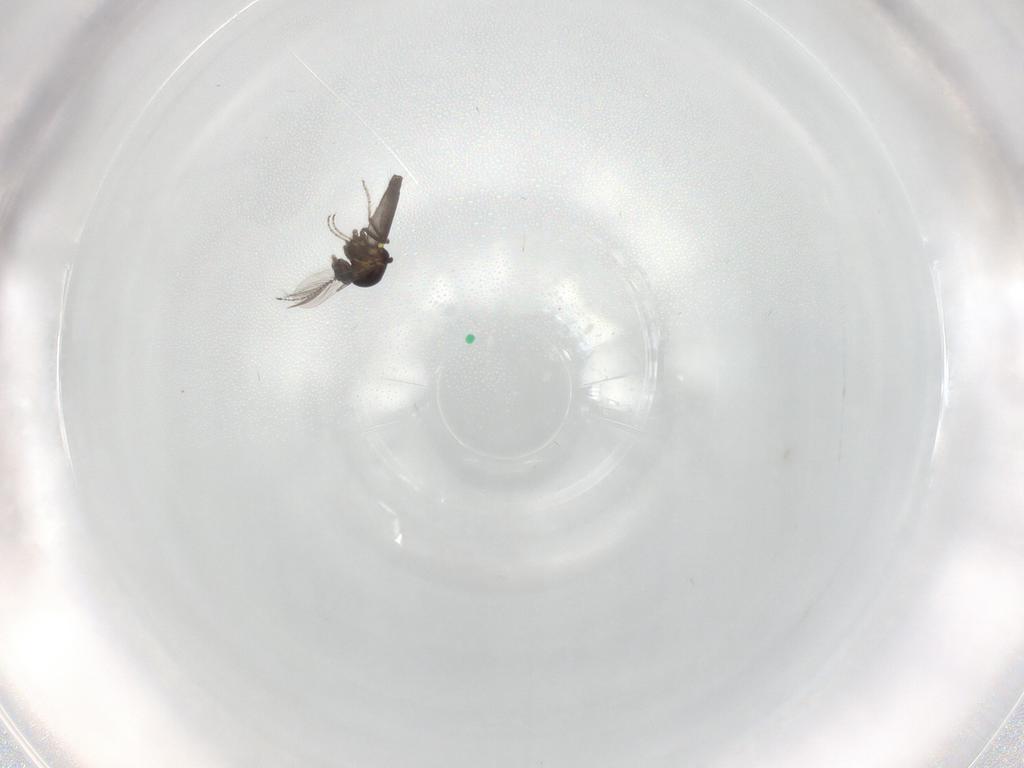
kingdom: Animalia
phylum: Arthropoda
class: Insecta
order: Diptera
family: Ceratopogonidae
